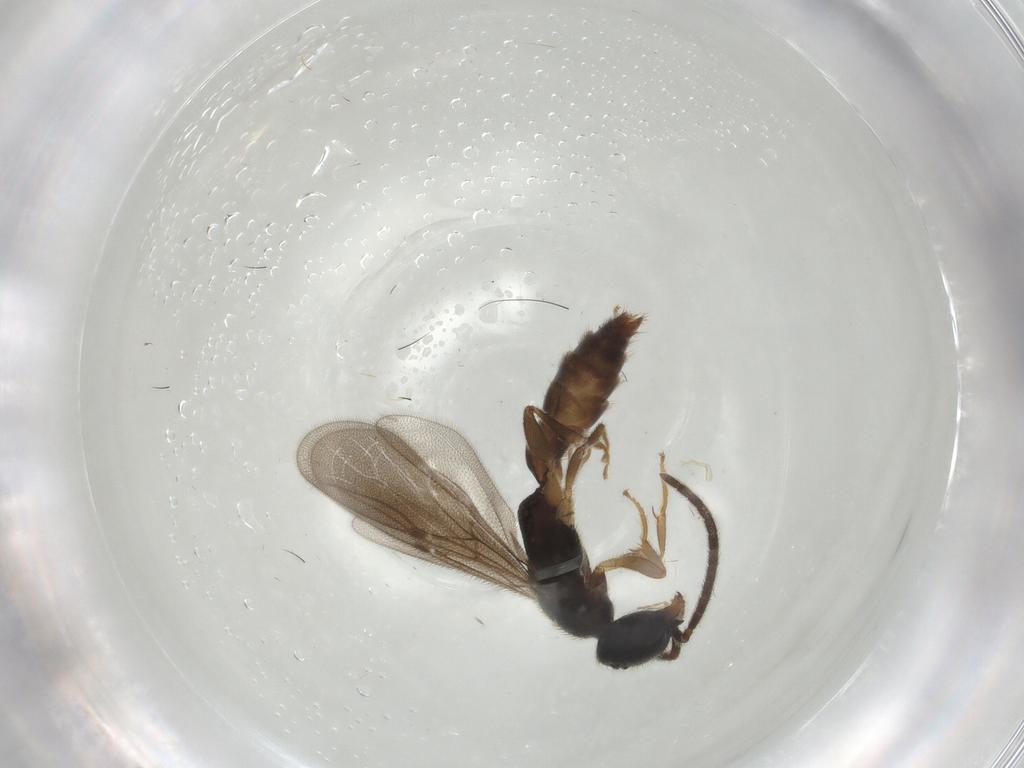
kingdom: Animalia
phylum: Arthropoda
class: Insecta
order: Hymenoptera
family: Bethylidae
